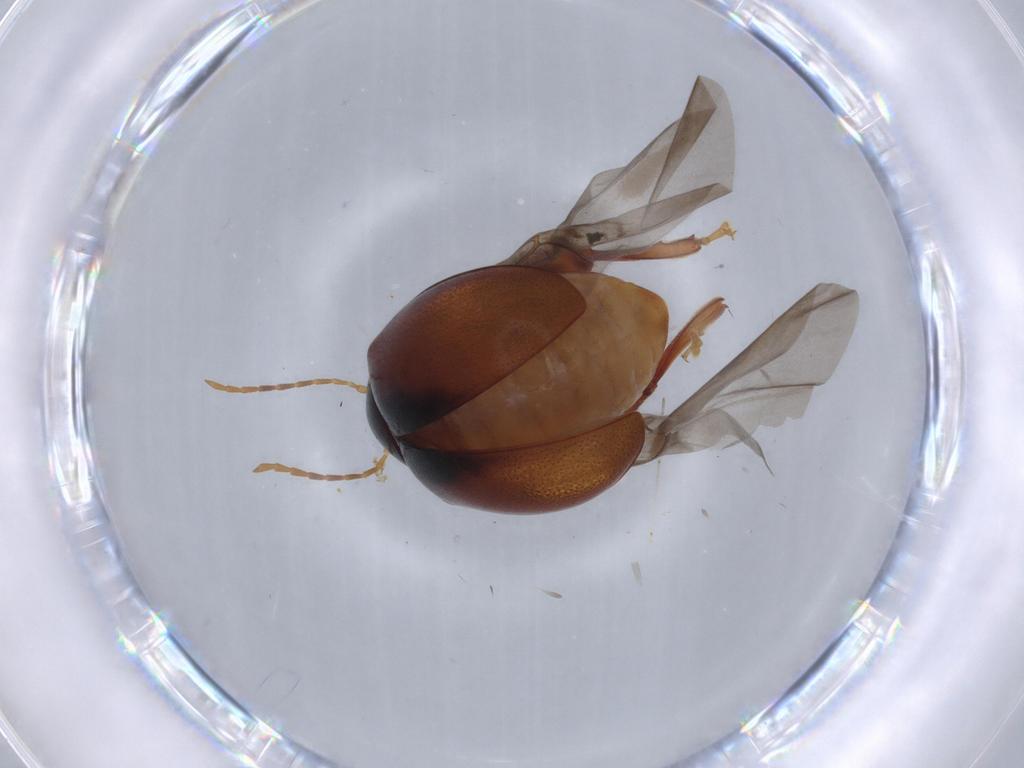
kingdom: Animalia
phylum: Arthropoda
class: Insecta
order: Coleoptera
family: Chrysomelidae
